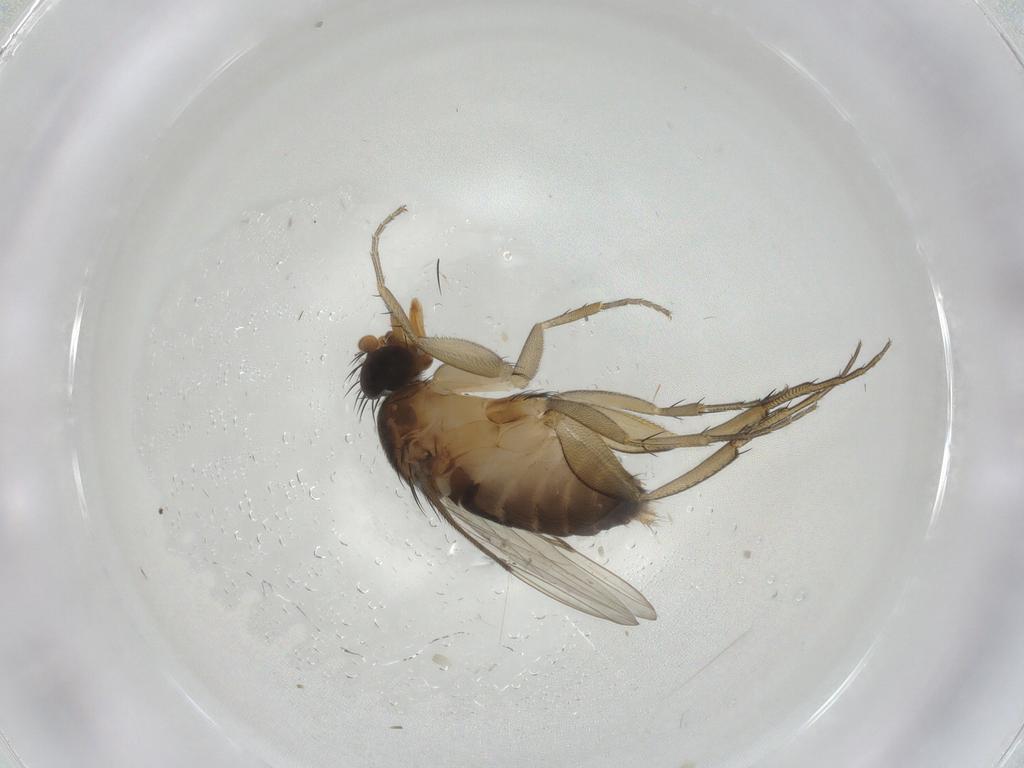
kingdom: Animalia
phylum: Arthropoda
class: Insecta
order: Diptera
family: Phoridae
